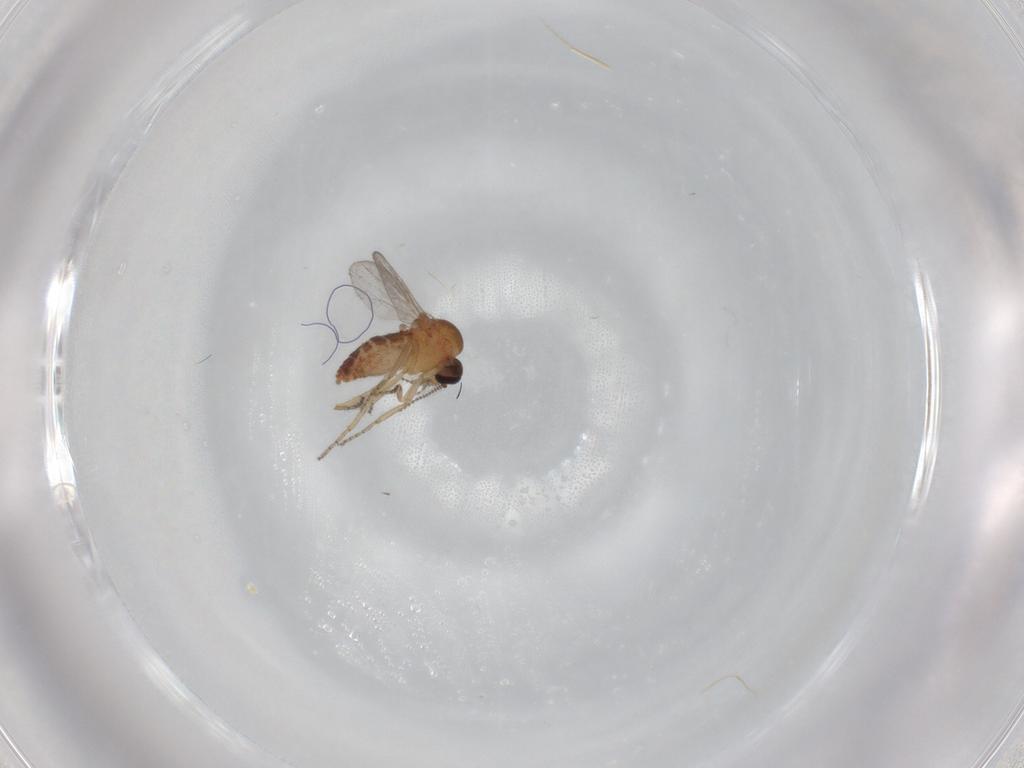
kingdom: Animalia
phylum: Arthropoda
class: Insecta
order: Diptera
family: Ceratopogonidae
